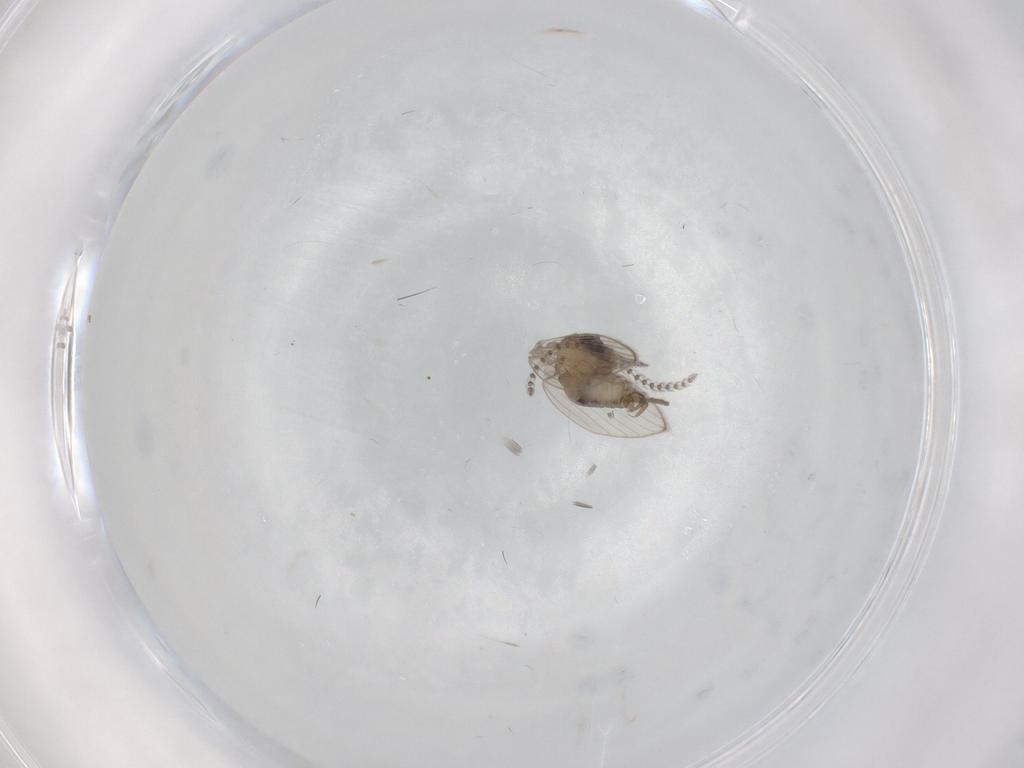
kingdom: Animalia
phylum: Arthropoda
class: Insecta
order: Diptera
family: Psychodidae
